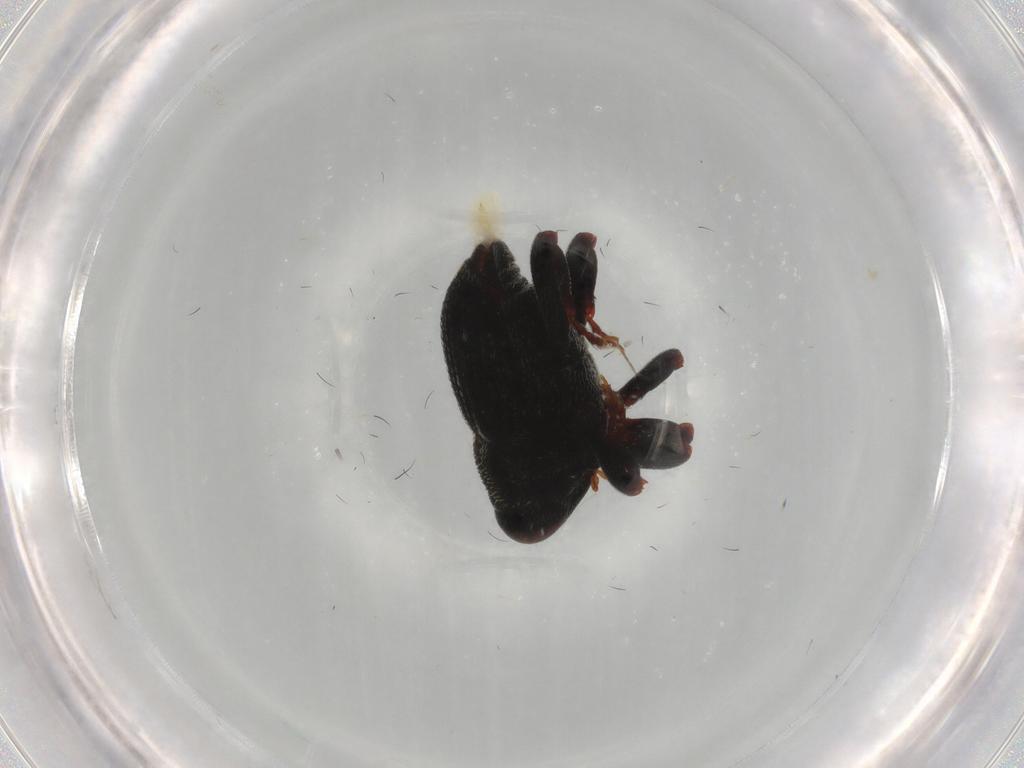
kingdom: Animalia
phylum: Arthropoda
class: Insecta
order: Coleoptera
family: Curculionidae
